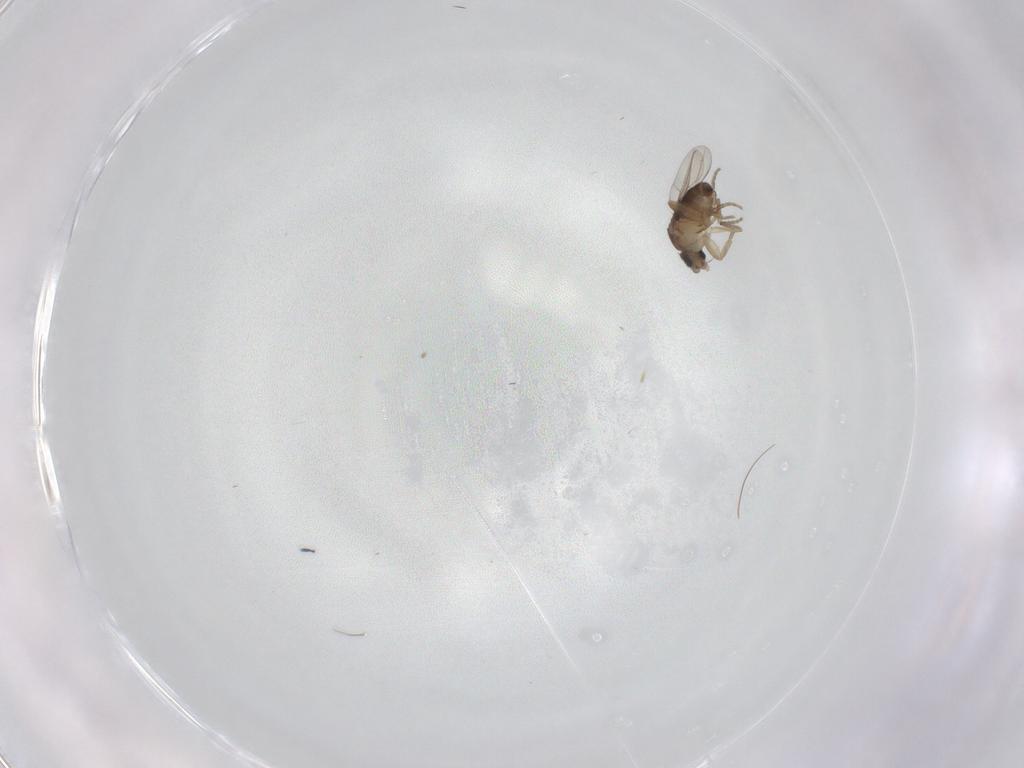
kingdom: Animalia
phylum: Arthropoda
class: Insecta
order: Diptera
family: Phoridae
